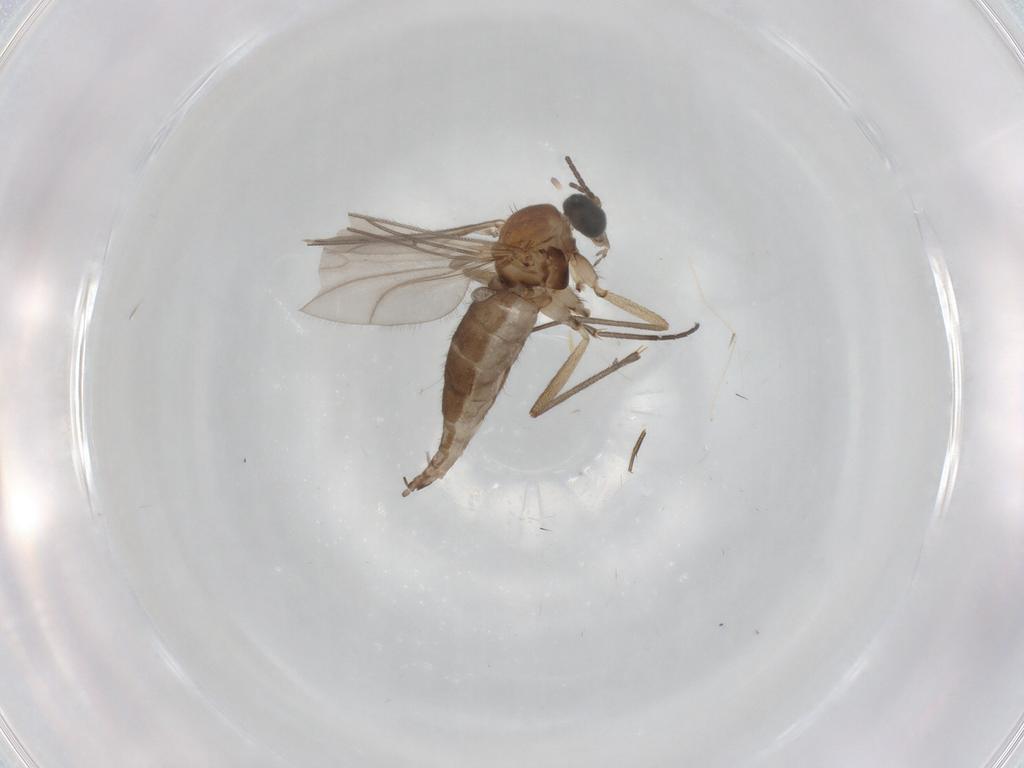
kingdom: Animalia
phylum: Arthropoda
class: Insecta
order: Diptera
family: Sciaridae
